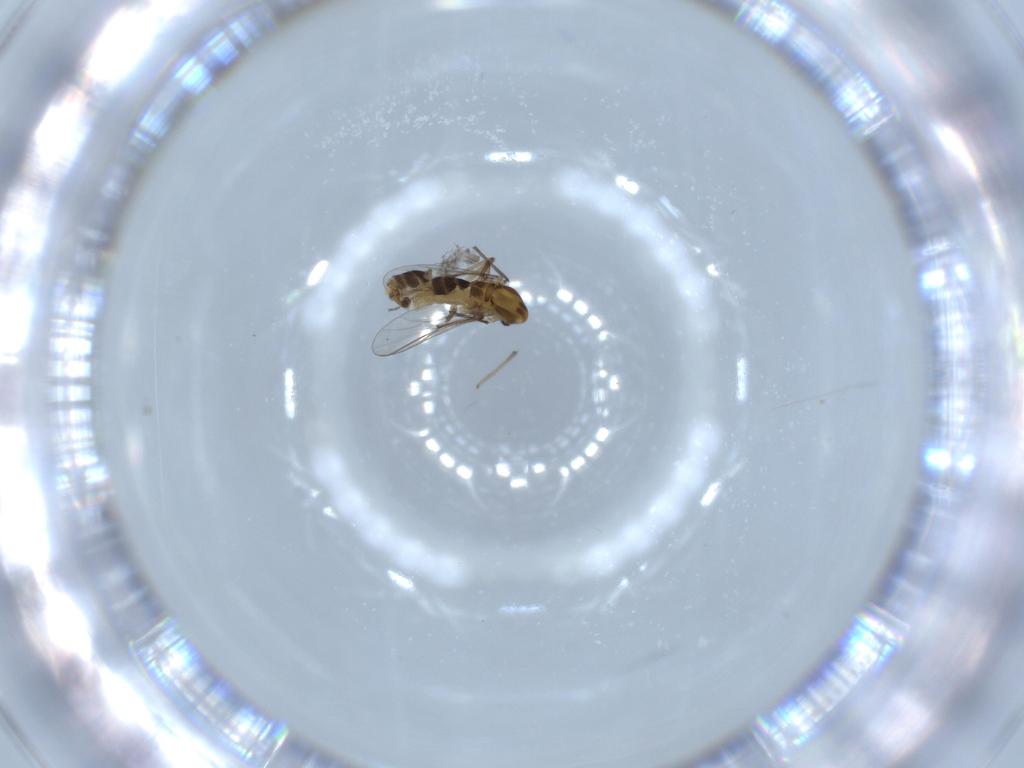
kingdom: Animalia
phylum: Arthropoda
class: Insecta
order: Diptera
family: Chironomidae
